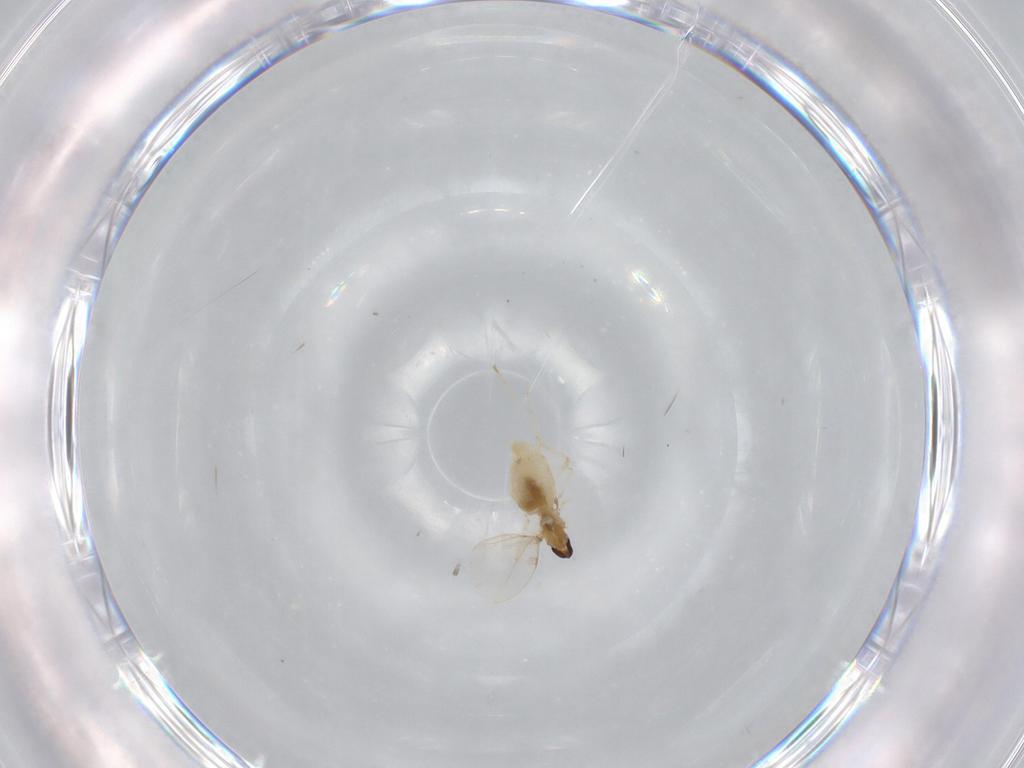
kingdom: Animalia
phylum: Arthropoda
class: Insecta
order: Diptera
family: Cecidomyiidae
